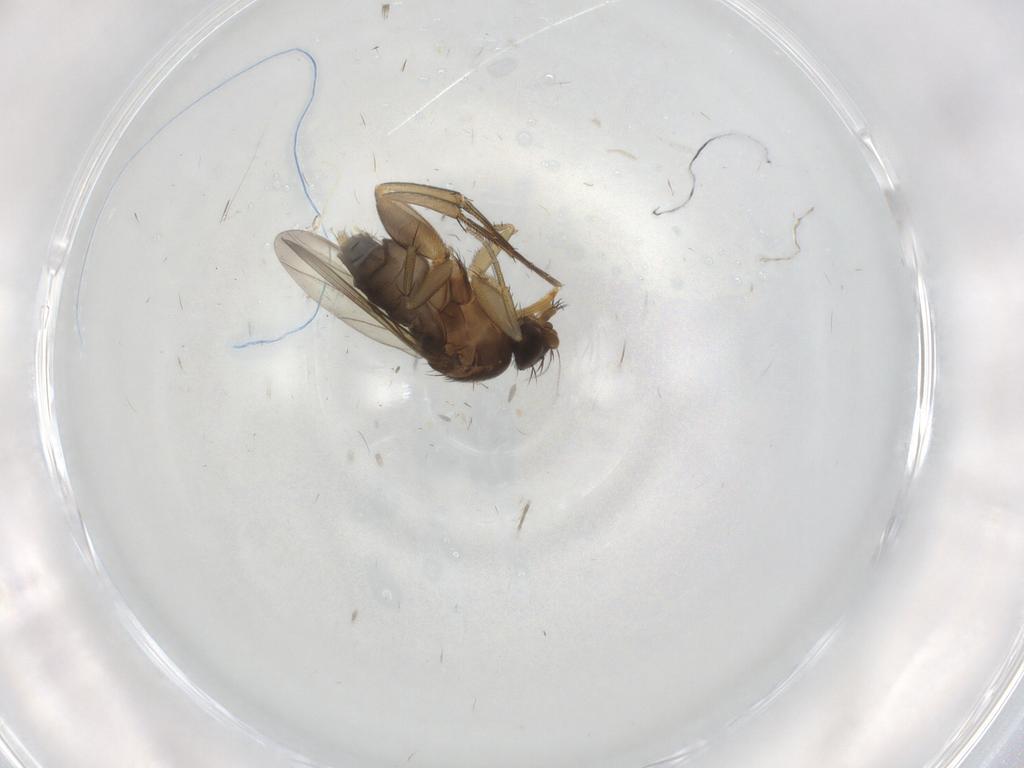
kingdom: Animalia
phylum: Arthropoda
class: Insecta
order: Diptera
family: Phoridae
